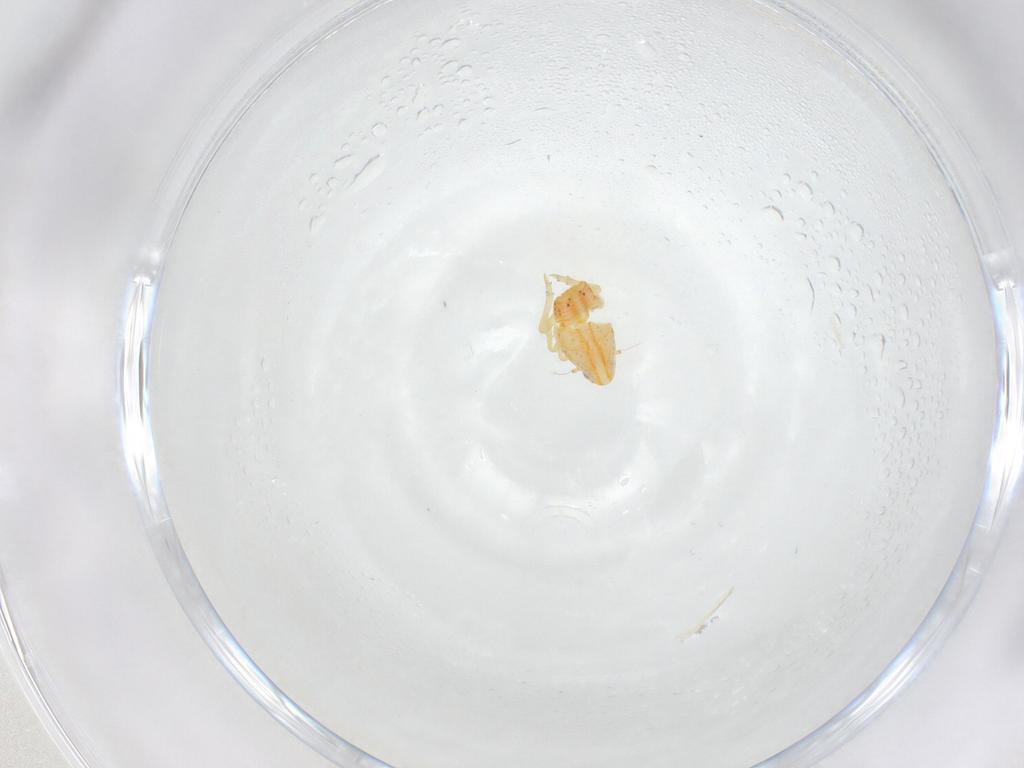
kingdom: Animalia
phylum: Arthropoda
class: Insecta
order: Hemiptera
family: Flatidae
